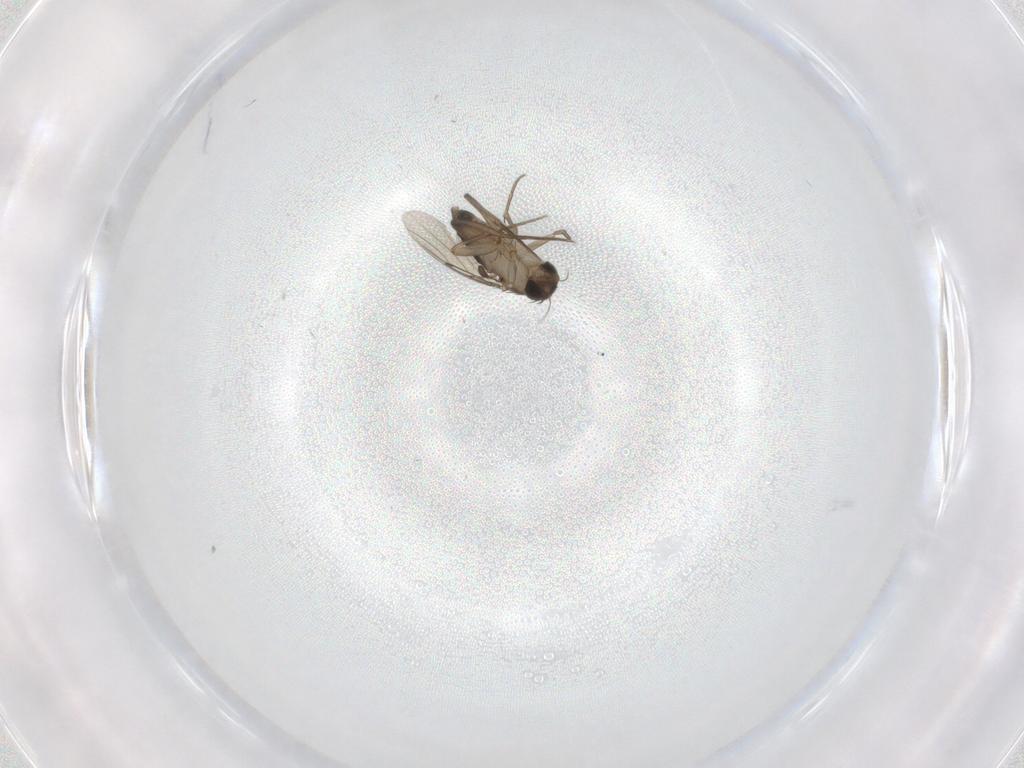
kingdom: Animalia
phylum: Arthropoda
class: Insecta
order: Diptera
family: Phoridae
